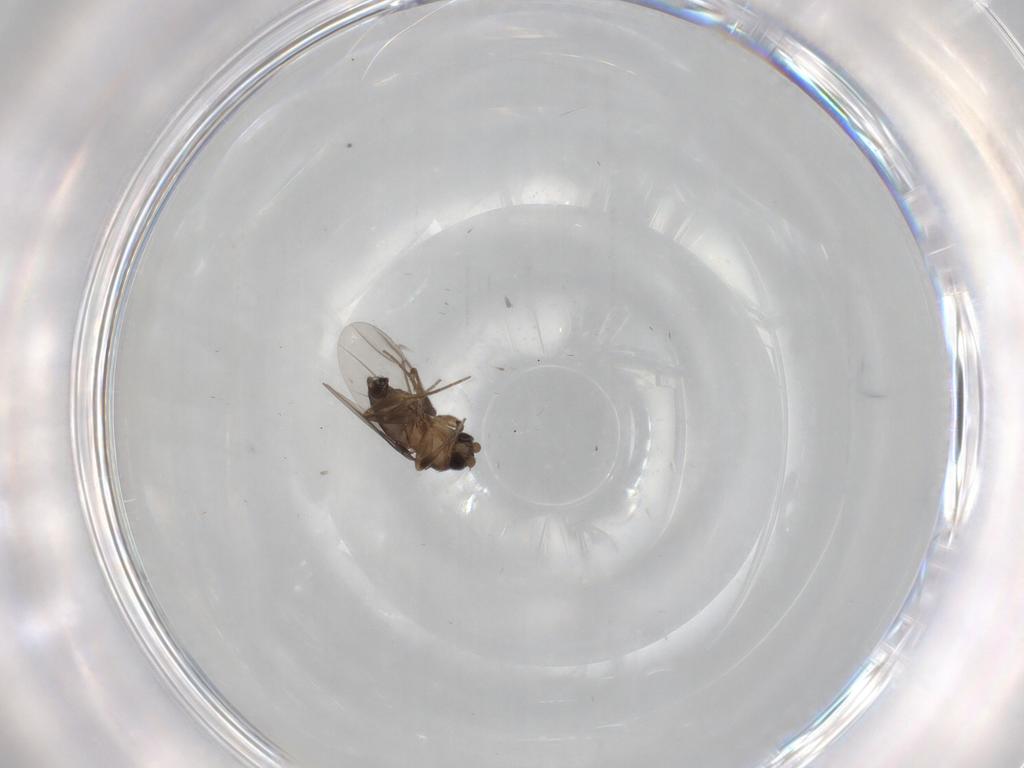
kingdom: Animalia
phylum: Arthropoda
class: Insecta
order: Diptera
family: Phoridae
